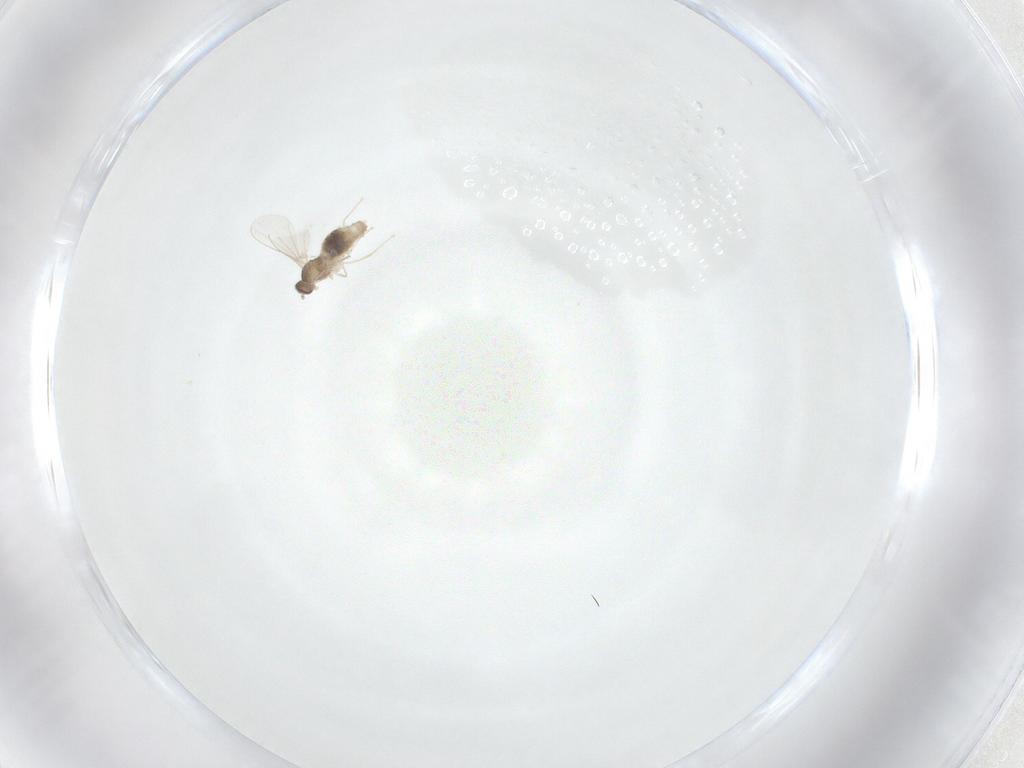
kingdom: Animalia
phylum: Arthropoda
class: Insecta
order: Diptera
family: Cecidomyiidae
